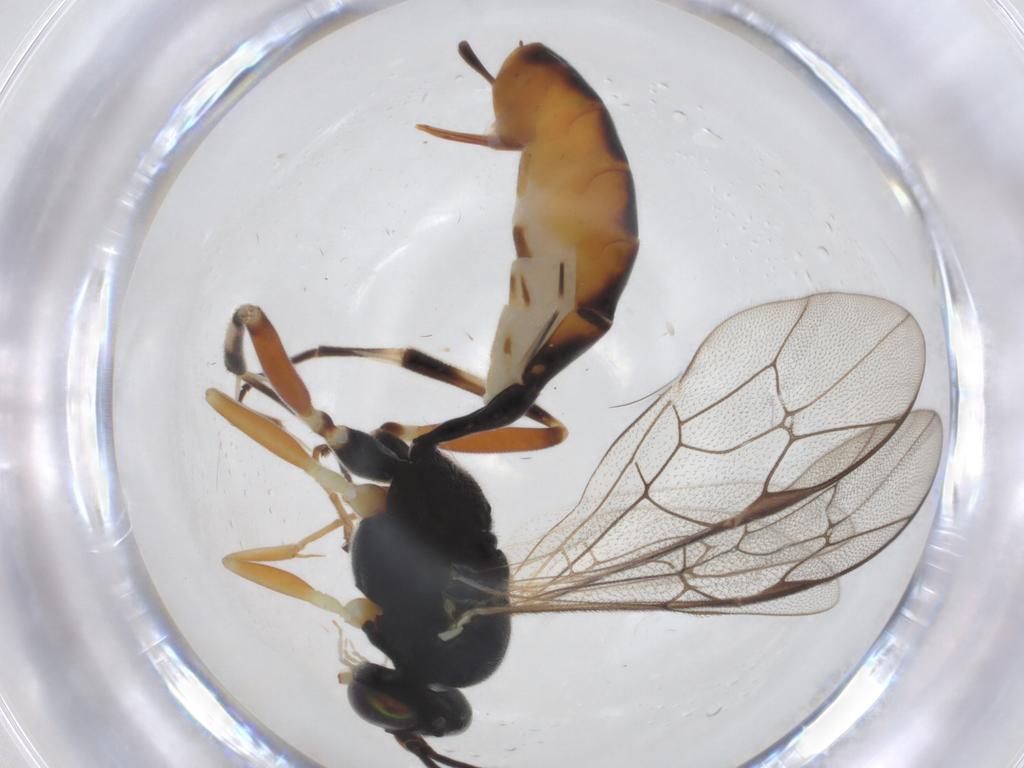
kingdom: Animalia
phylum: Arthropoda
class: Insecta
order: Hymenoptera
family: Ichneumonidae
